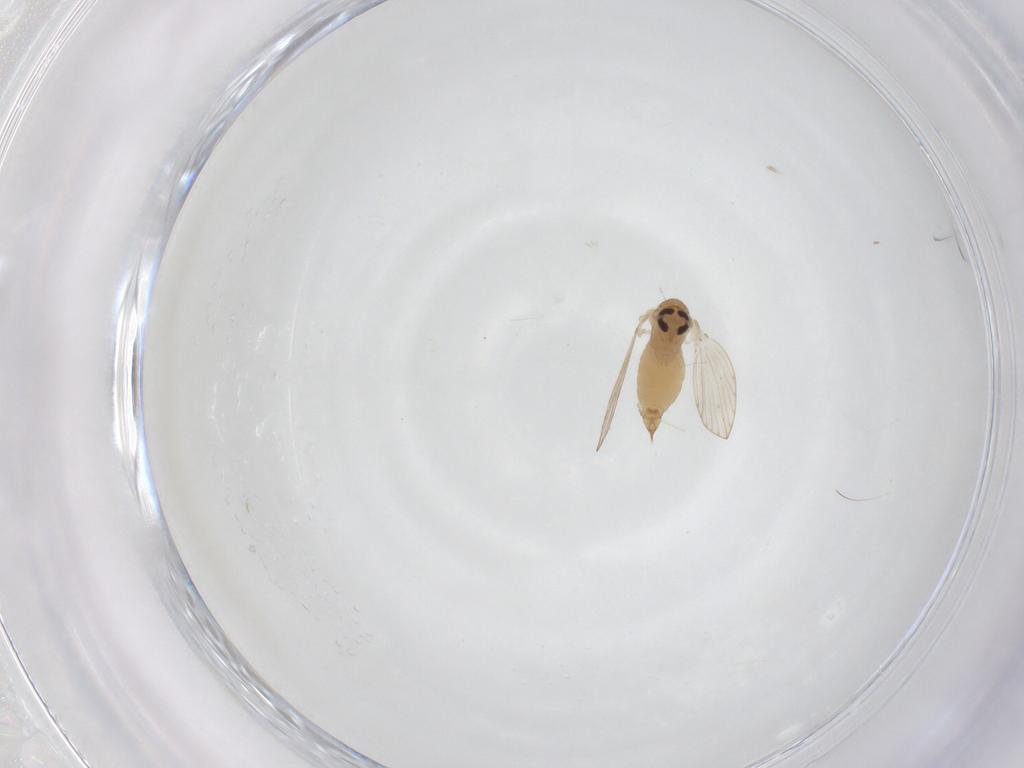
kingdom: Animalia
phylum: Arthropoda
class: Insecta
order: Diptera
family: Psychodidae
